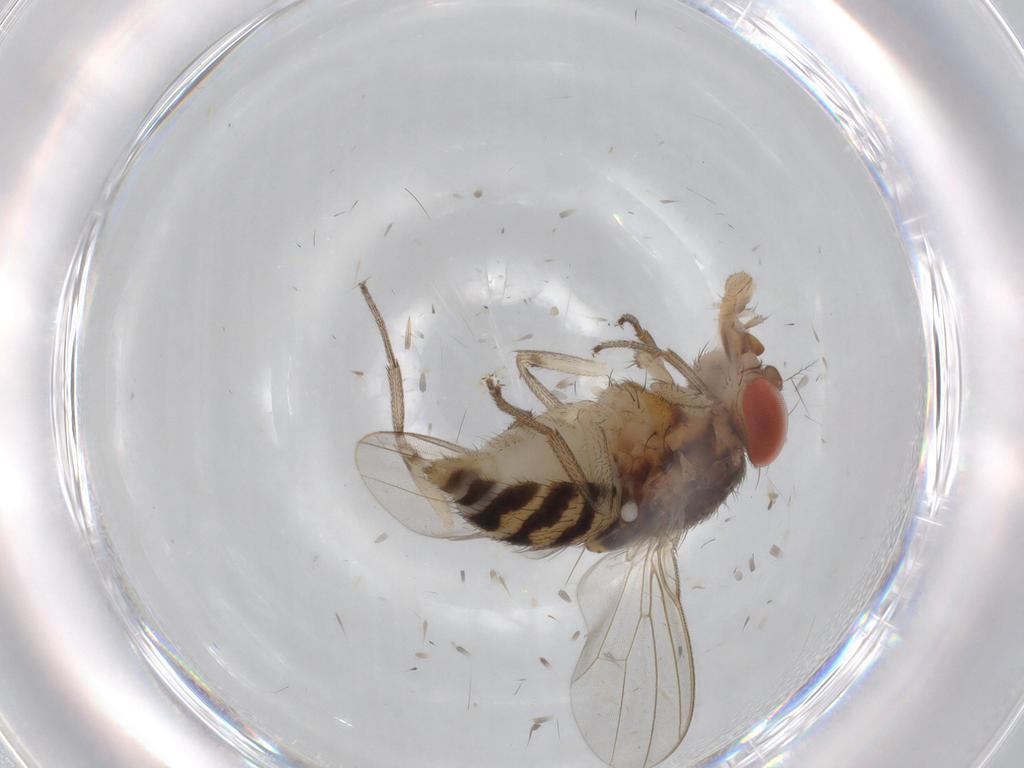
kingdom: Animalia
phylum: Arthropoda
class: Insecta
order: Diptera
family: Drosophilidae
